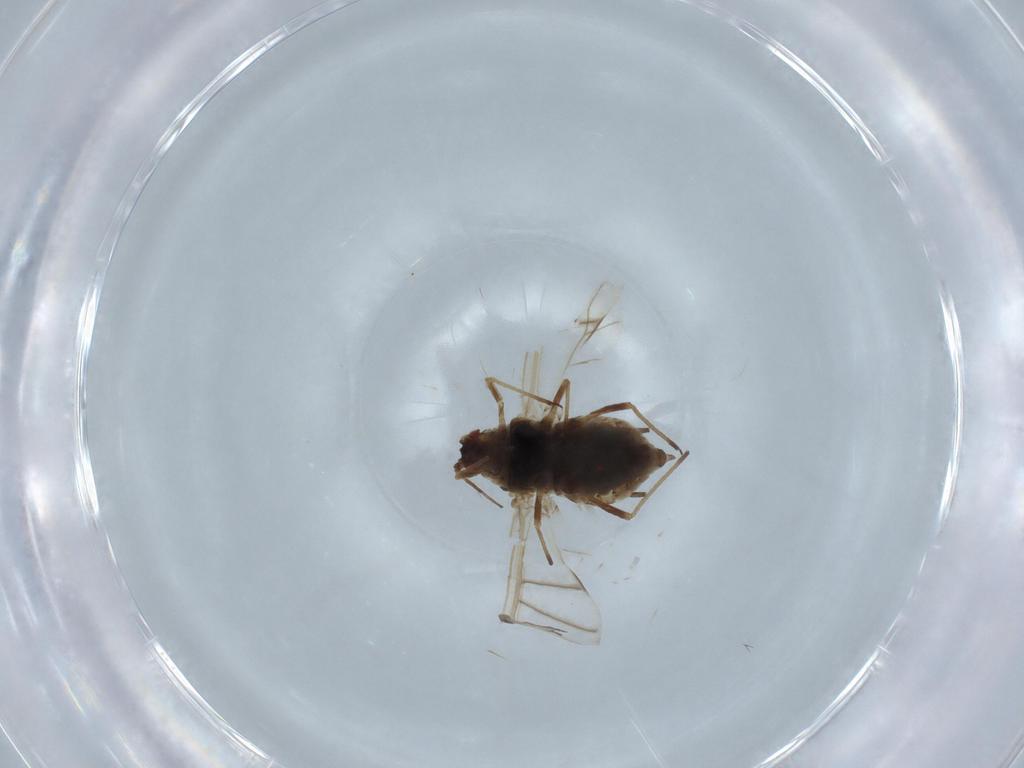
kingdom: Animalia
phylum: Arthropoda
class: Insecta
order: Hemiptera
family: Aphididae
